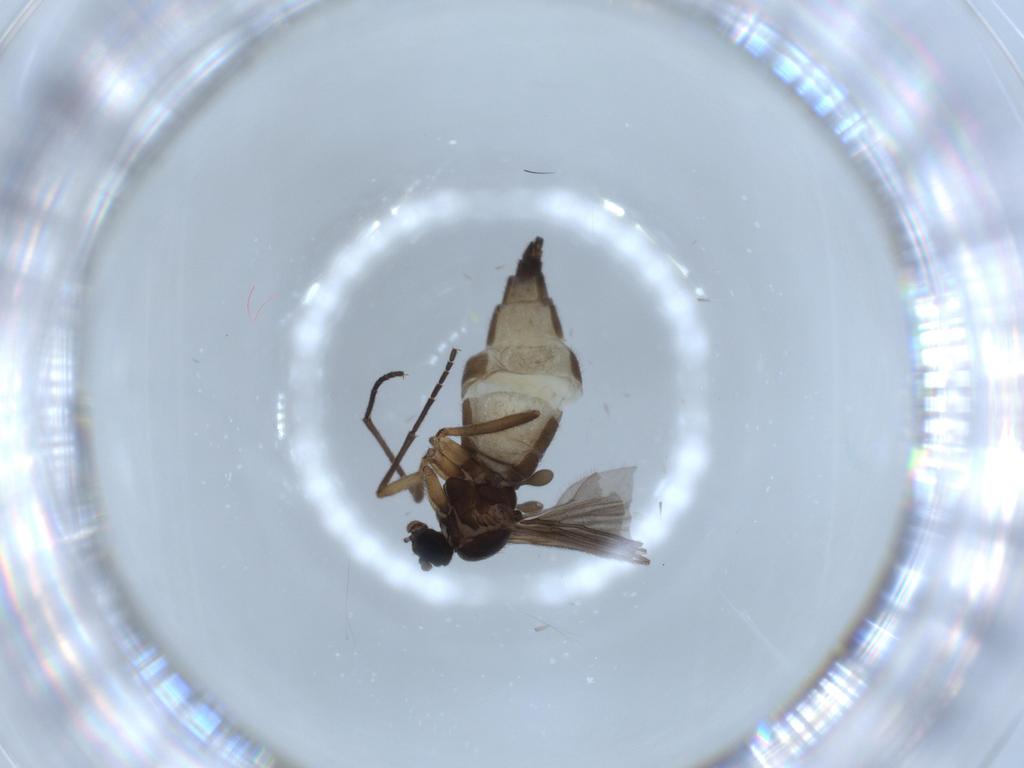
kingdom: Animalia
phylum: Arthropoda
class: Insecta
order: Diptera
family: Sciaridae
